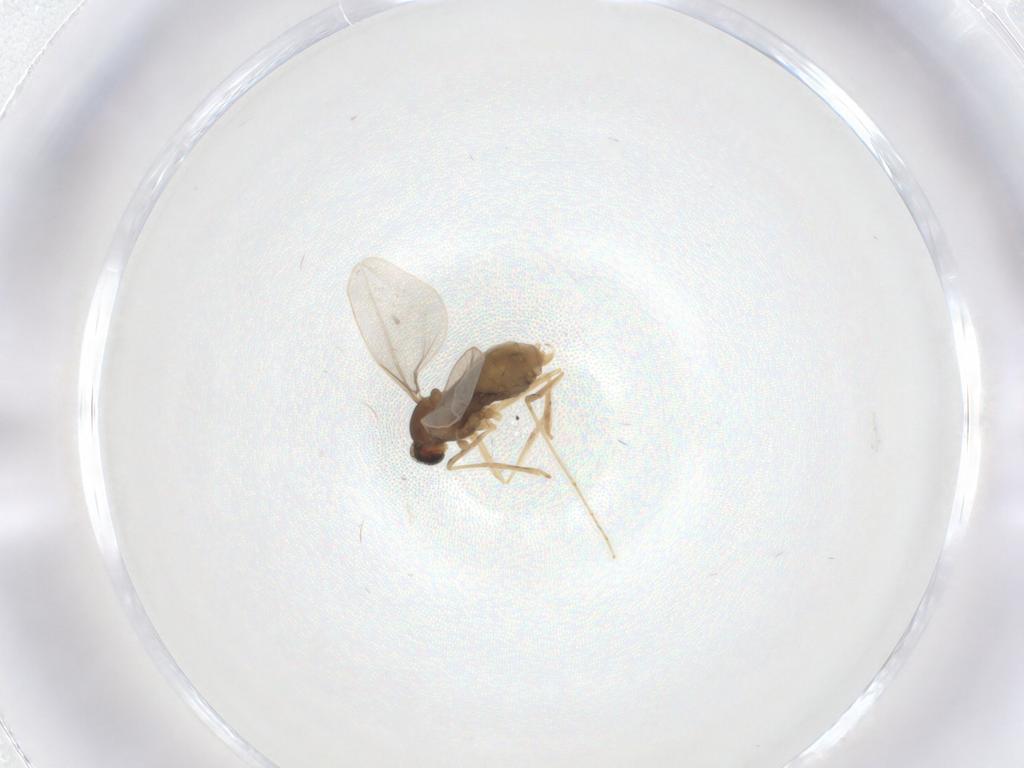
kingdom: Animalia
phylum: Arthropoda
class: Insecta
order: Diptera
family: Cecidomyiidae
